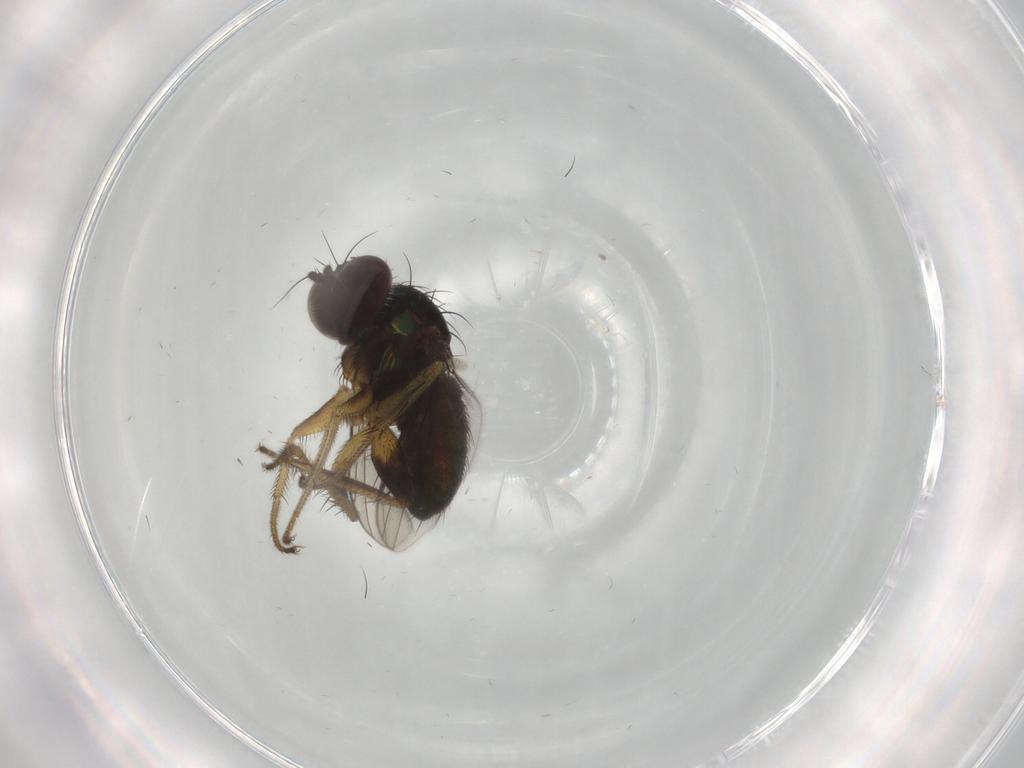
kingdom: Animalia
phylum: Arthropoda
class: Insecta
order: Diptera
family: Dolichopodidae
